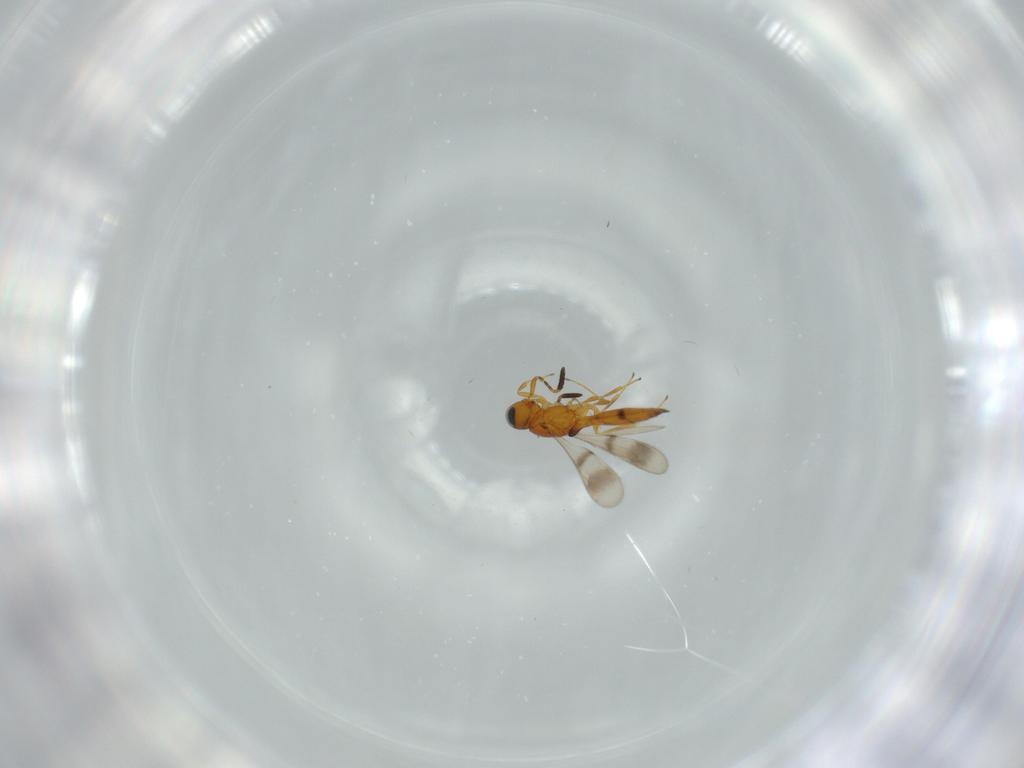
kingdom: Animalia
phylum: Arthropoda
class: Insecta
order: Hymenoptera
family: Scelionidae
